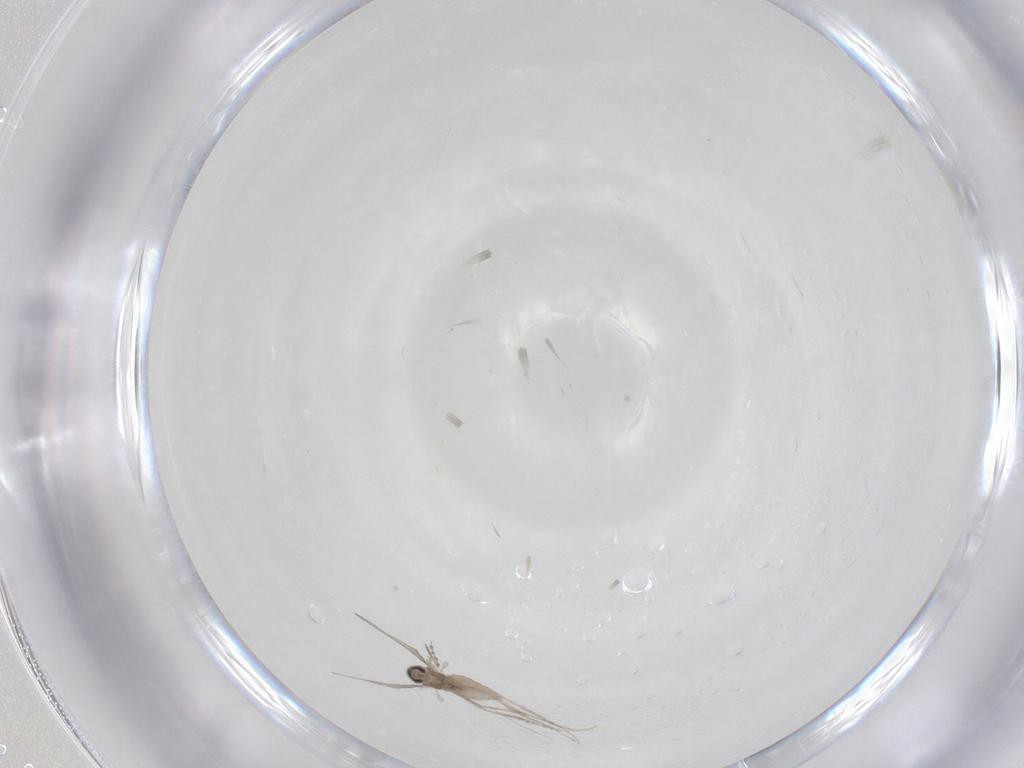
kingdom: Animalia
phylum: Arthropoda
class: Insecta
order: Diptera
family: Cecidomyiidae
